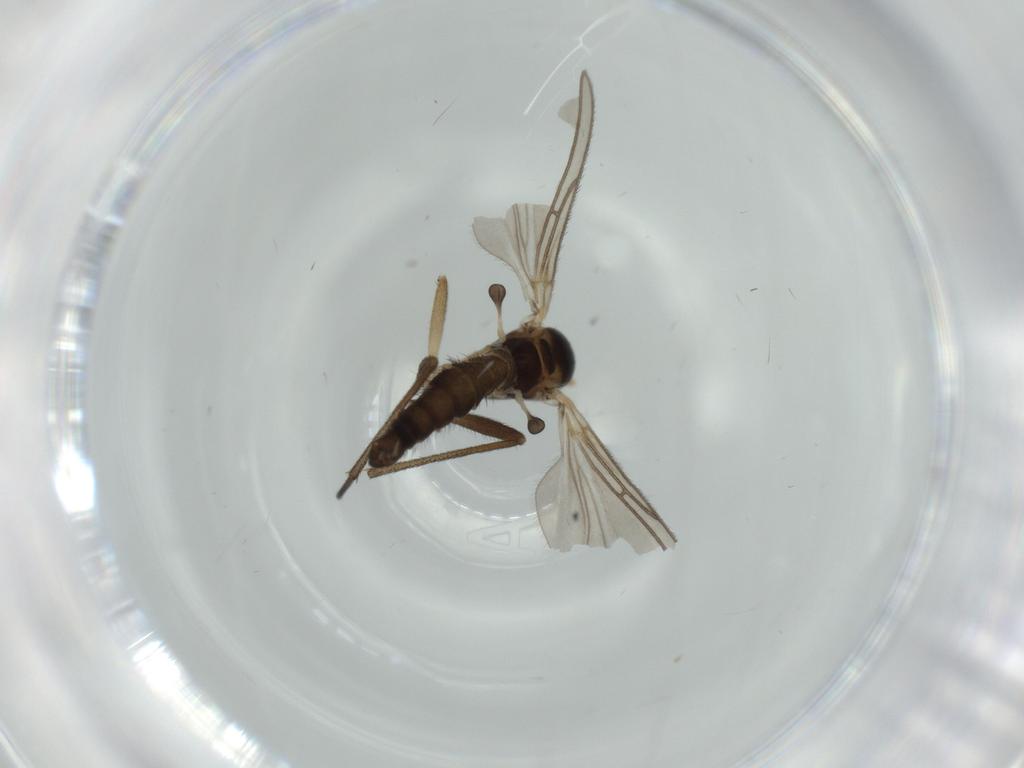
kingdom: Animalia
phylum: Arthropoda
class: Insecta
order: Diptera
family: Sciaridae
